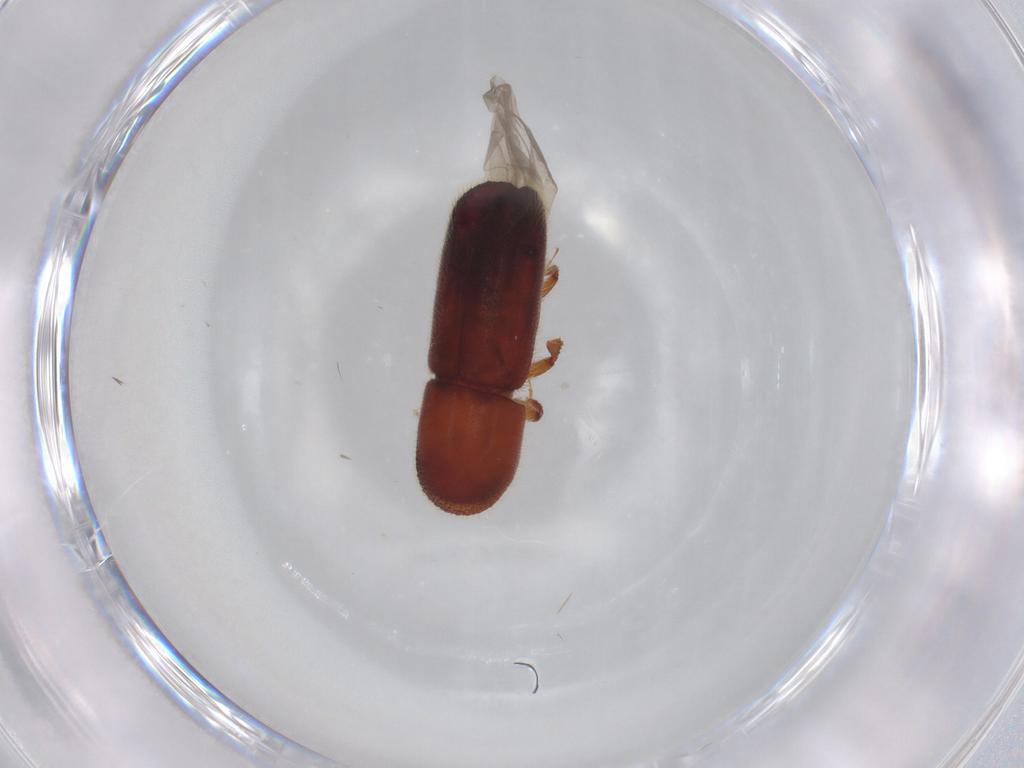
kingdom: Animalia
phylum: Arthropoda
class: Insecta
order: Coleoptera
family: Curculionidae
